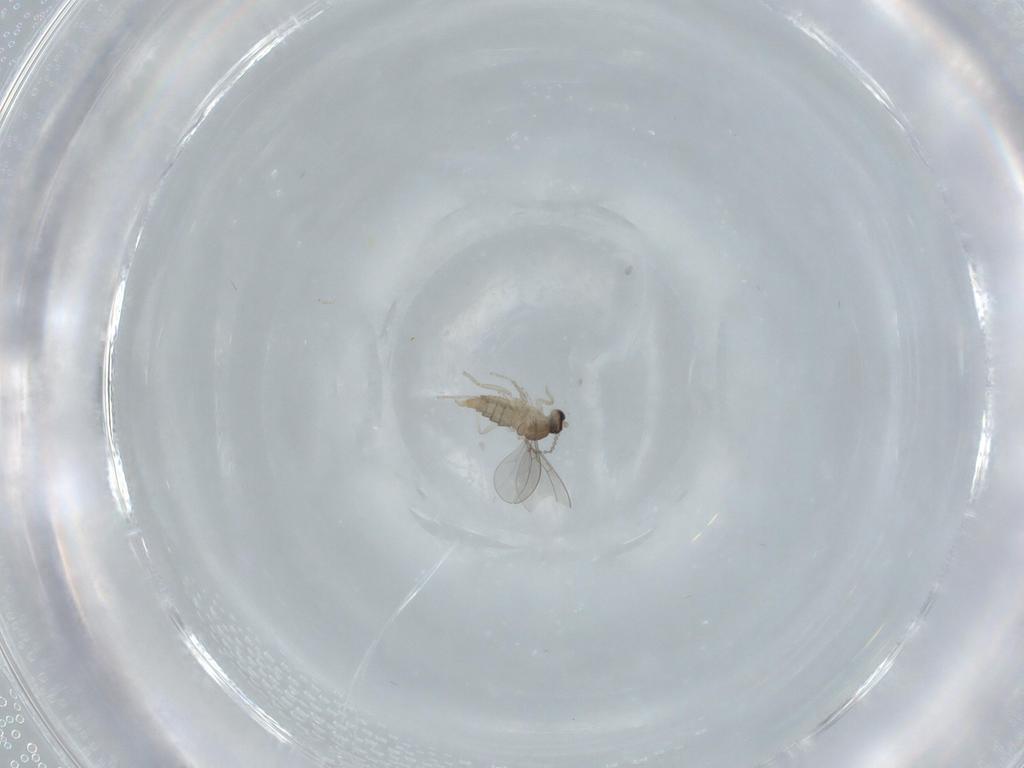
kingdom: Animalia
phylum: Arthropoda
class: Insecta
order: Diptera
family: Cecidomyiidae
